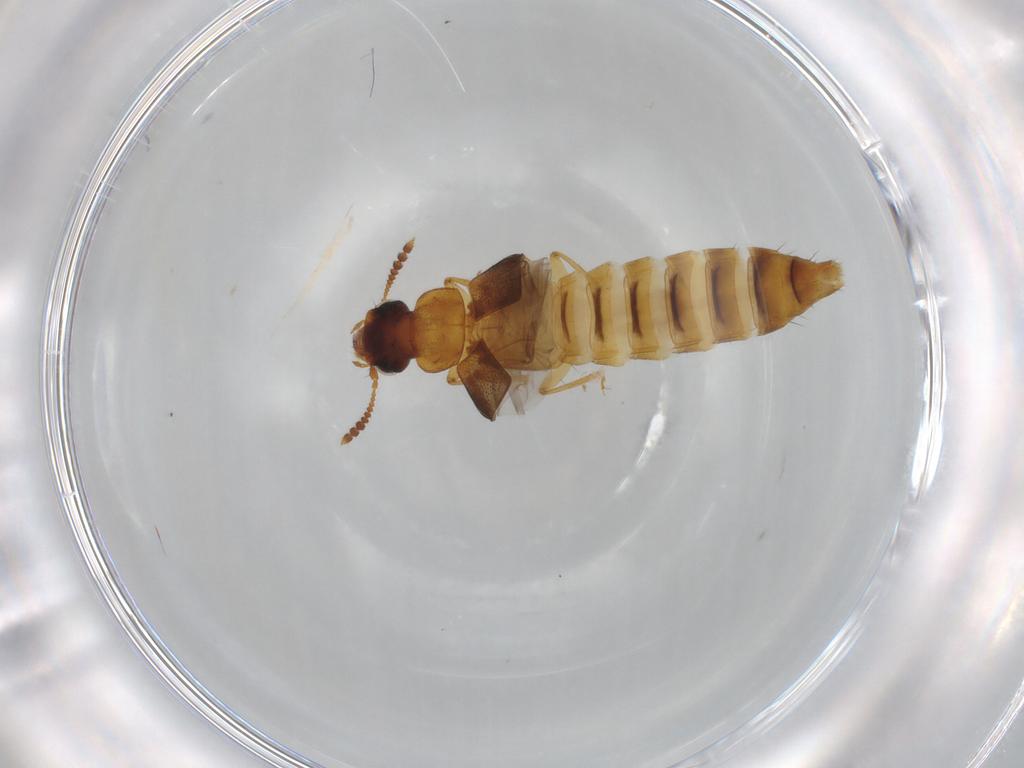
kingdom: Animalia
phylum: Arthropoda
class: Insecta
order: Coleoptera
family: Staphylinidae
